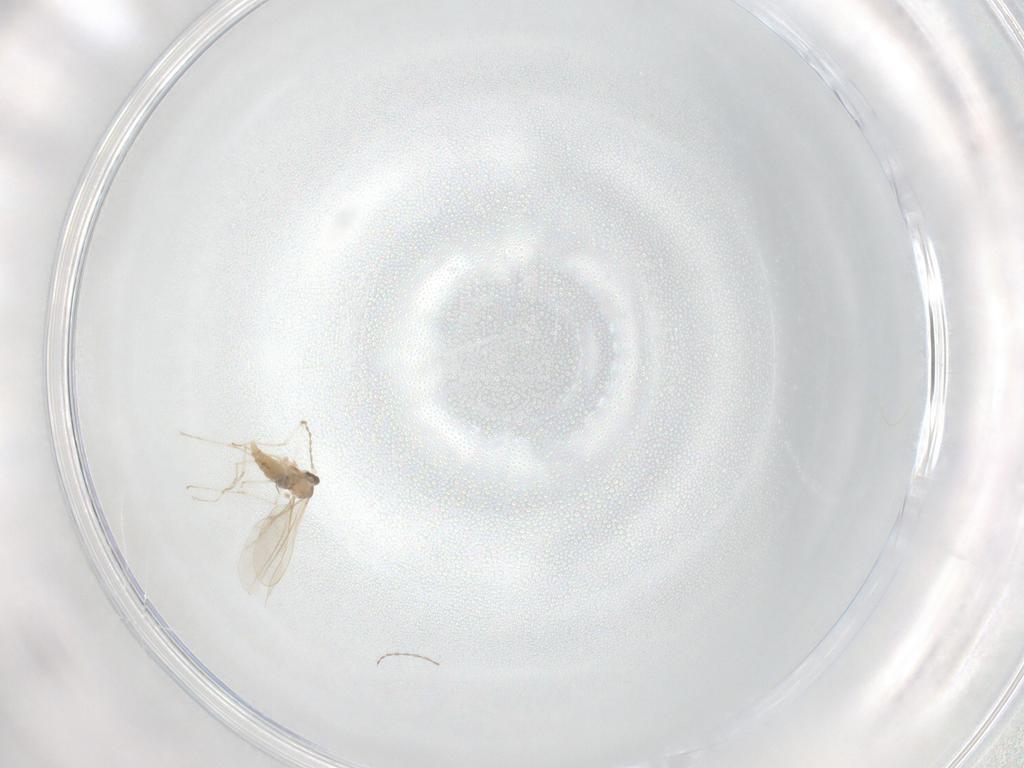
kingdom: Animalia
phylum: Arthropoda
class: Insecta
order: Diptera
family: Cecidomyiidae
